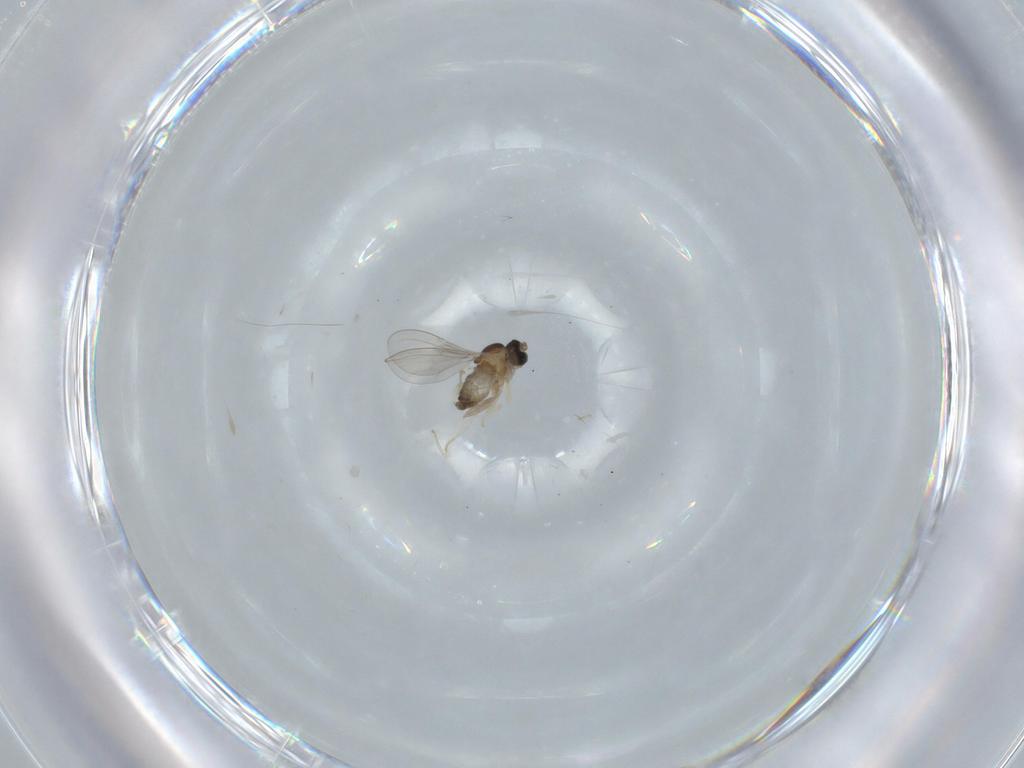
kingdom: Animalia
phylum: Arthropoda
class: Insecta
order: Diptera
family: Cecidomyiidae
